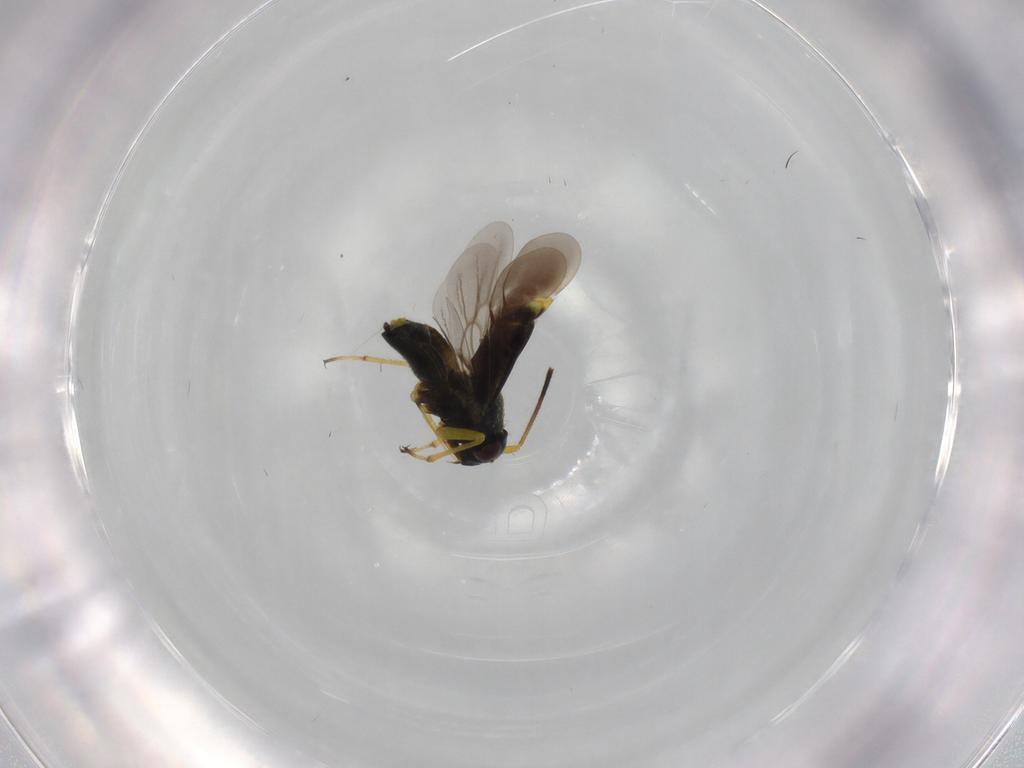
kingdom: Animalia
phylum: Arthropoda
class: Insecta
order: Hemiptera
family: Miridae
